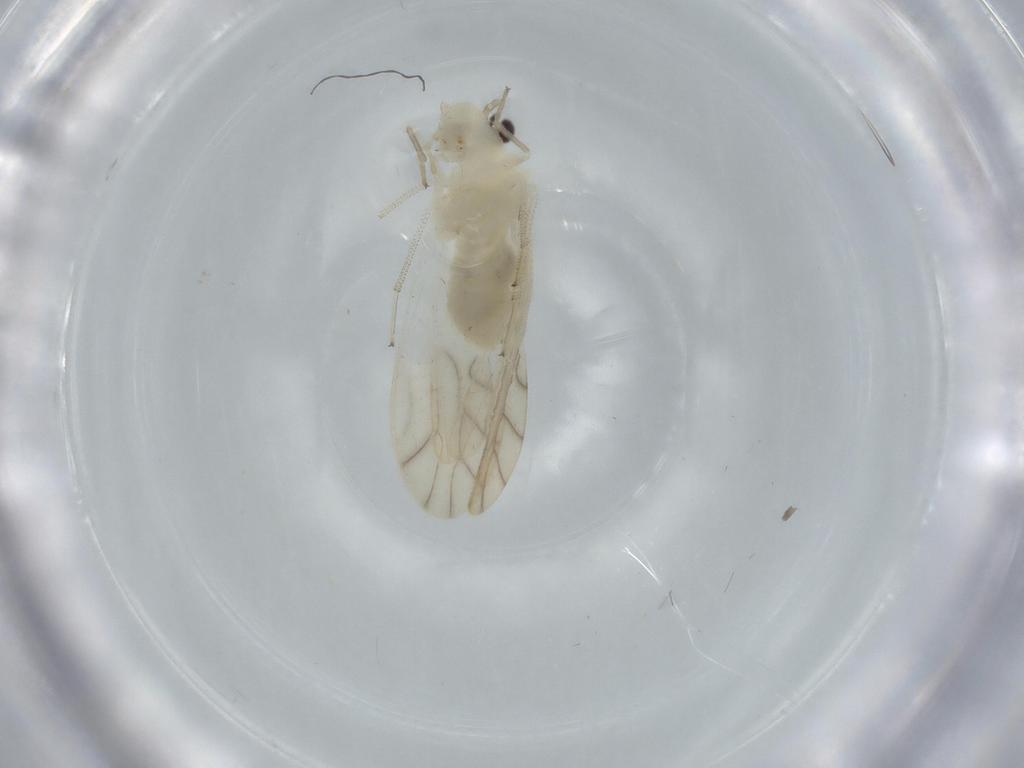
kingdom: Animalia
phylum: Arthropoda
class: Insecta
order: Psocodea
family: Caeciliusidae
